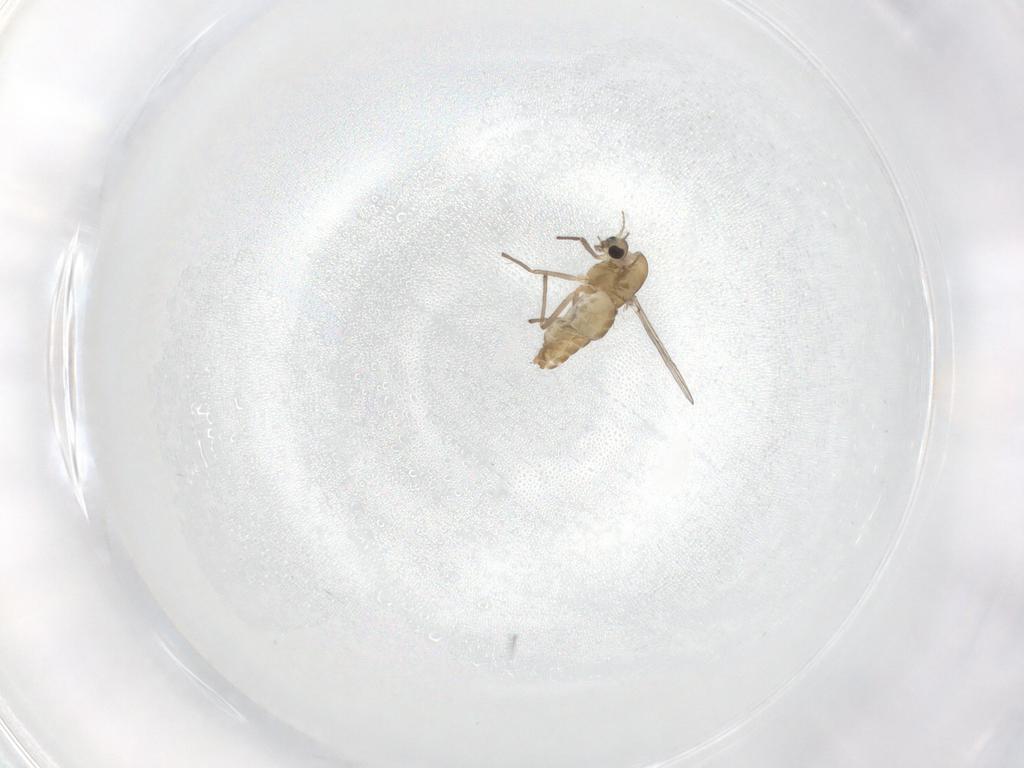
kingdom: Animalia
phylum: Arthropoda
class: Insecta
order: Diptera
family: Chironomidae
